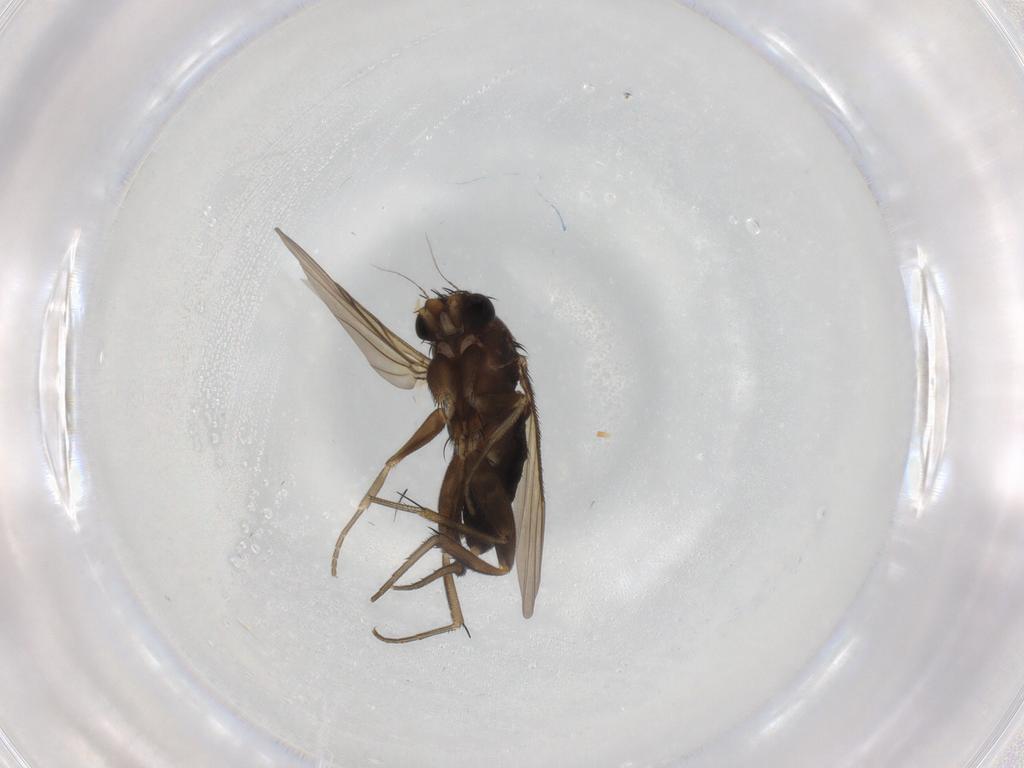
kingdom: Animalia
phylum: Arthropoda
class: Insecta
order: Diptera
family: Phoridae
